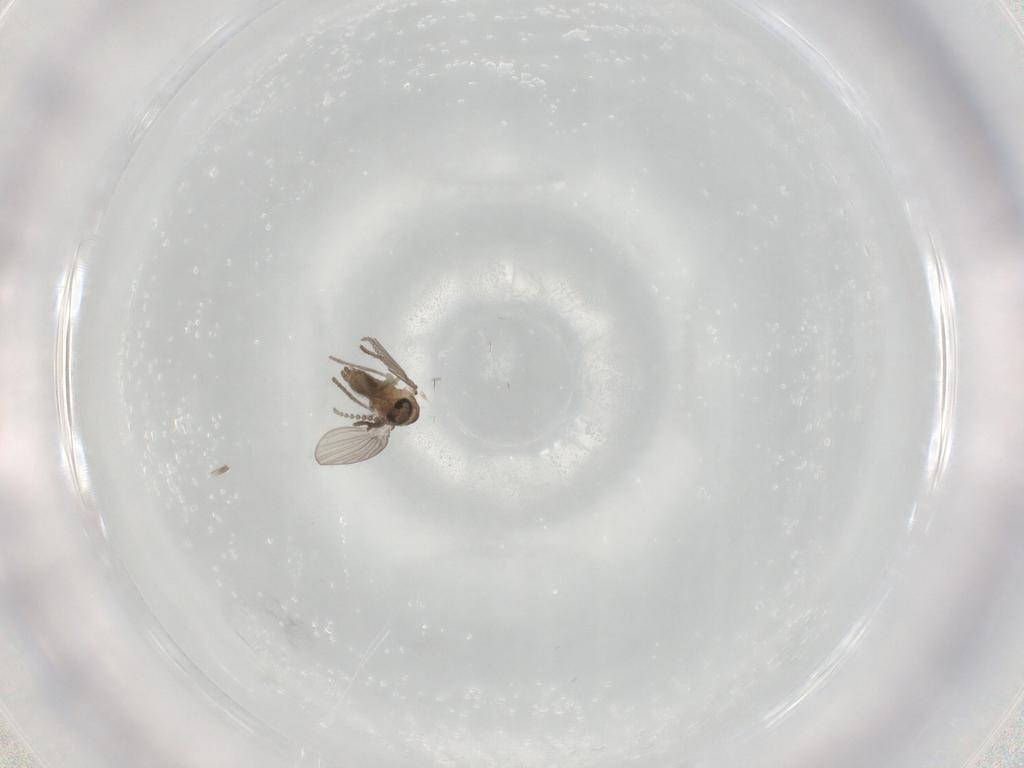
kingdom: Animalia
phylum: Arthropoda
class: Insecta
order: Diptera
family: Psychodidae
